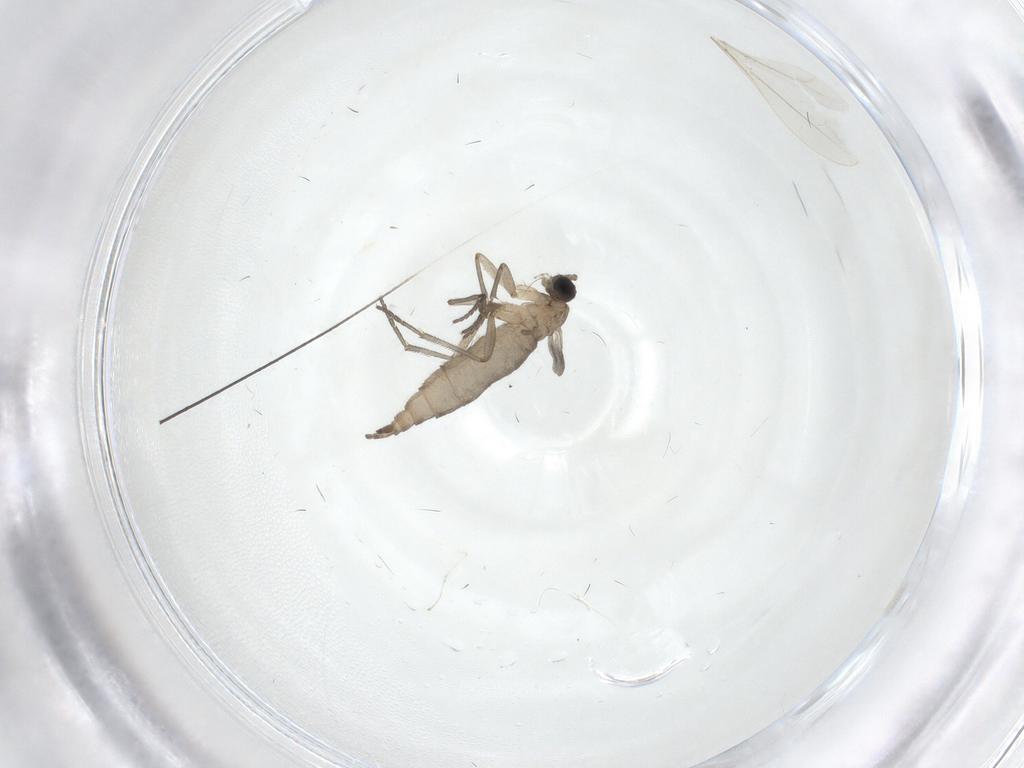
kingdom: Animalia
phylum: Arthropoda
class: Insecta
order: Diptera
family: Sciaridae
